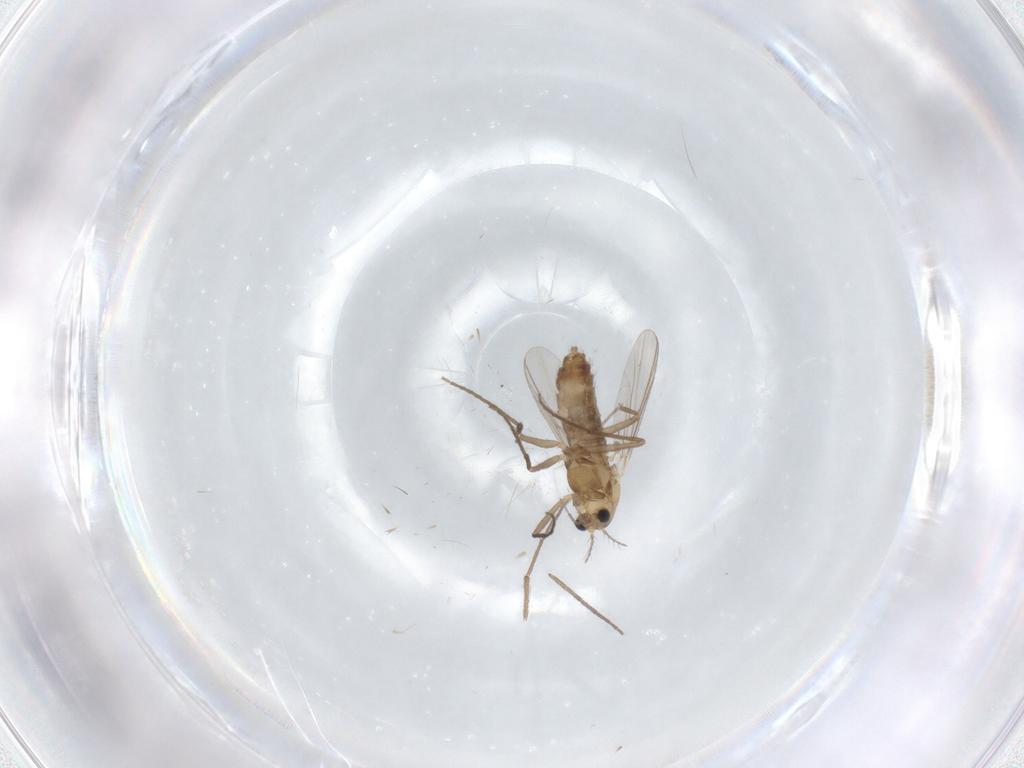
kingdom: Animalia
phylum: Arthropoda
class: Insecta
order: Diptera
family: Chironomidae
